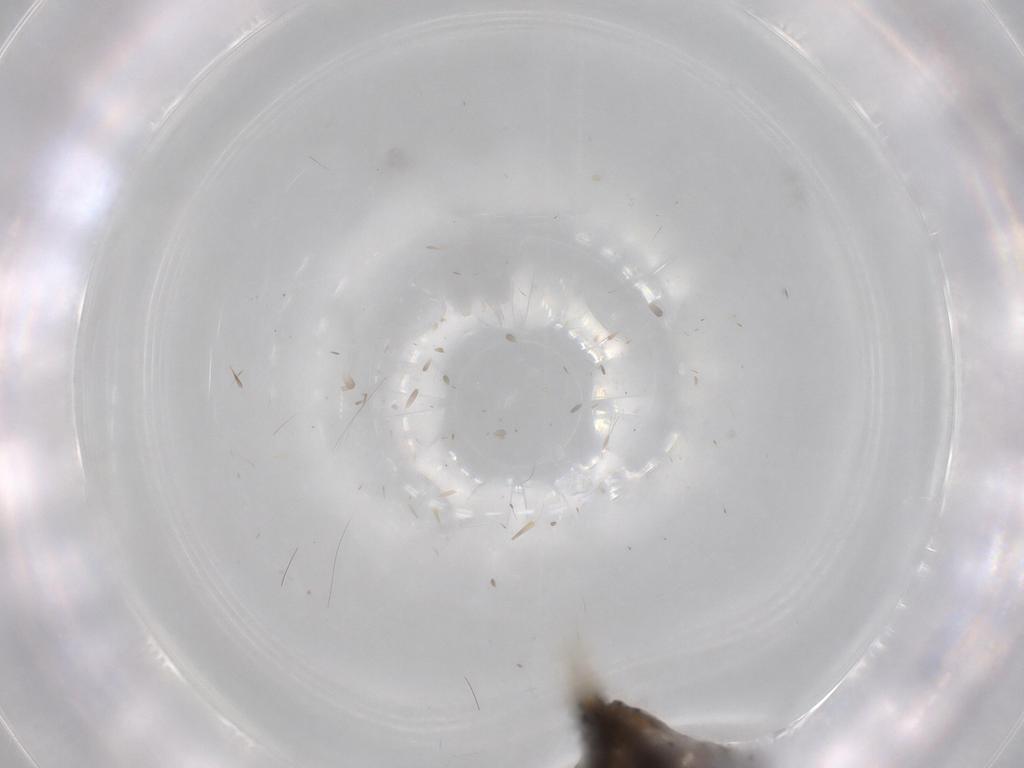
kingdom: Animalia
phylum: Arthropoda
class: Insecta
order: Lepidoptera
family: Tineidae
